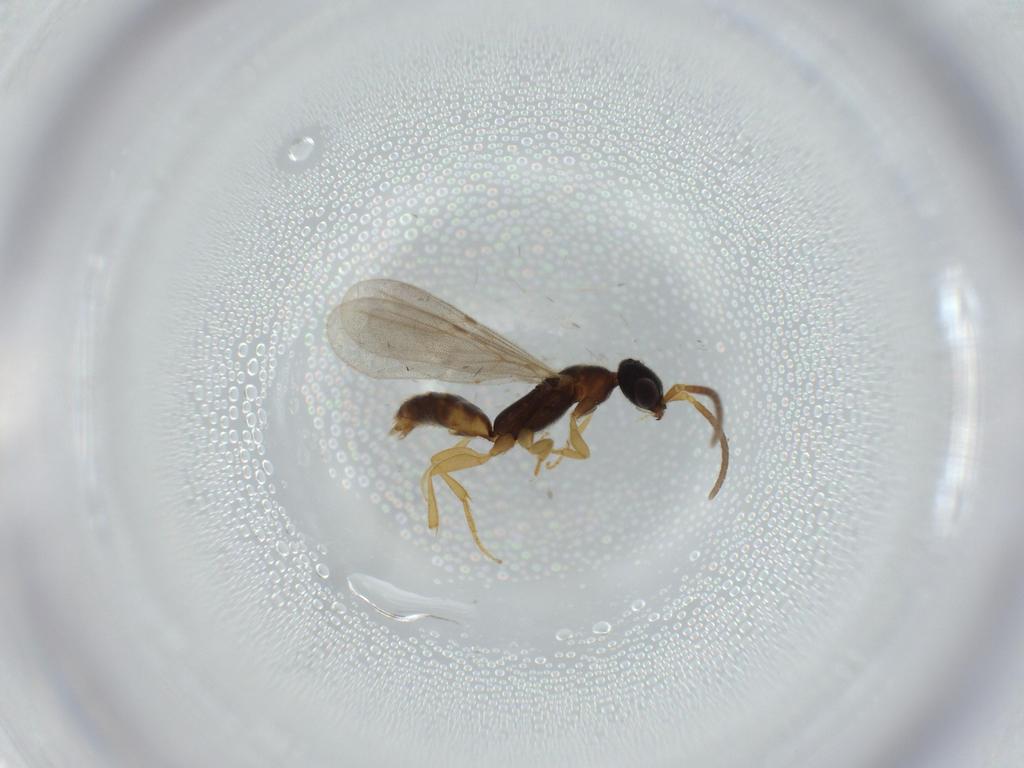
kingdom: Animalia
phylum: Arthropoda
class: Insecta
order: Hymenoptera
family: Bethylidae
